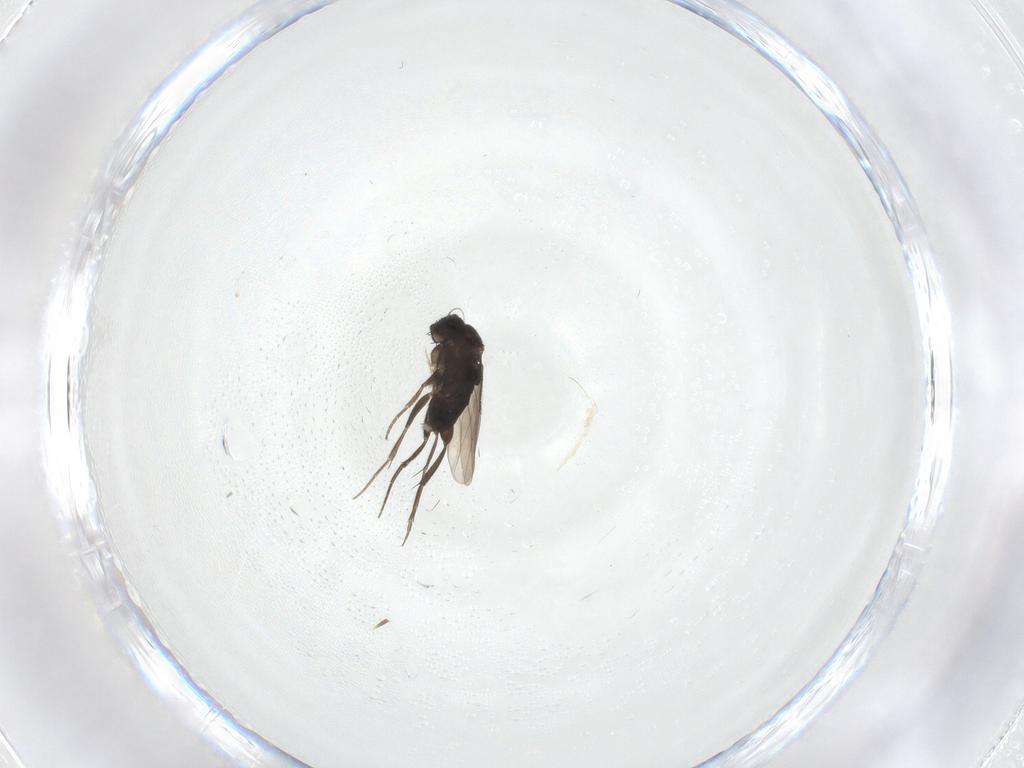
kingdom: Animalia
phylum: Arthropoda
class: Insecta
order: Diptera
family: Phoridae
